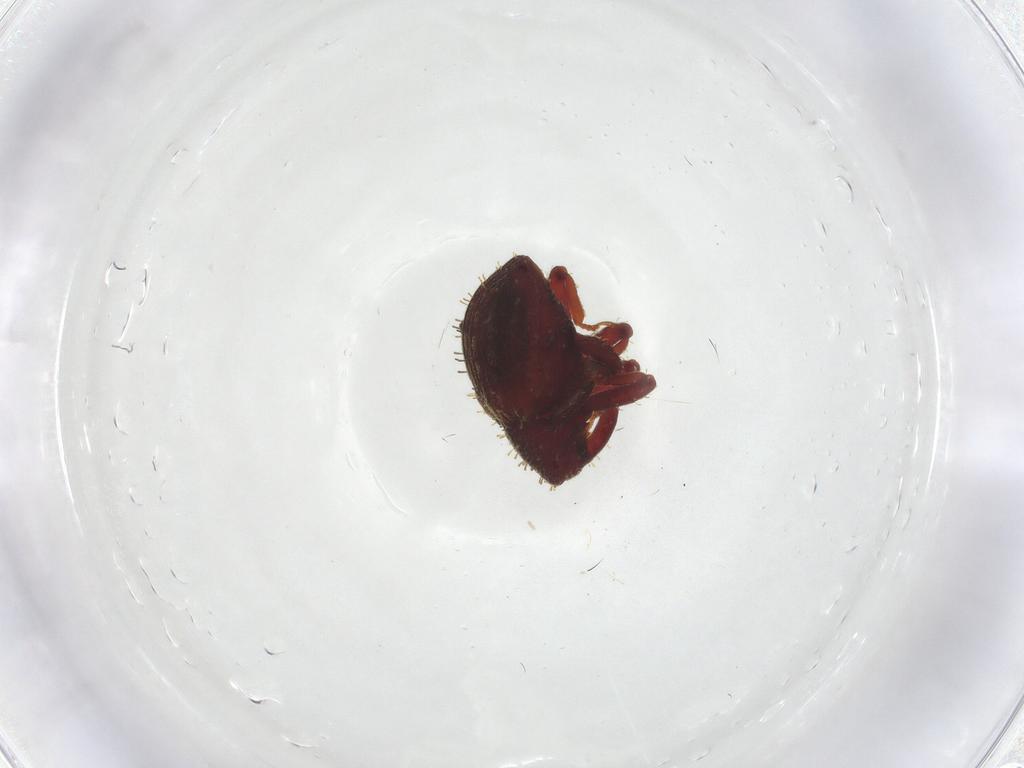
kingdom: Animalia
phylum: Arthropoda
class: Insecta
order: Coleoptera
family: Curculionidae
